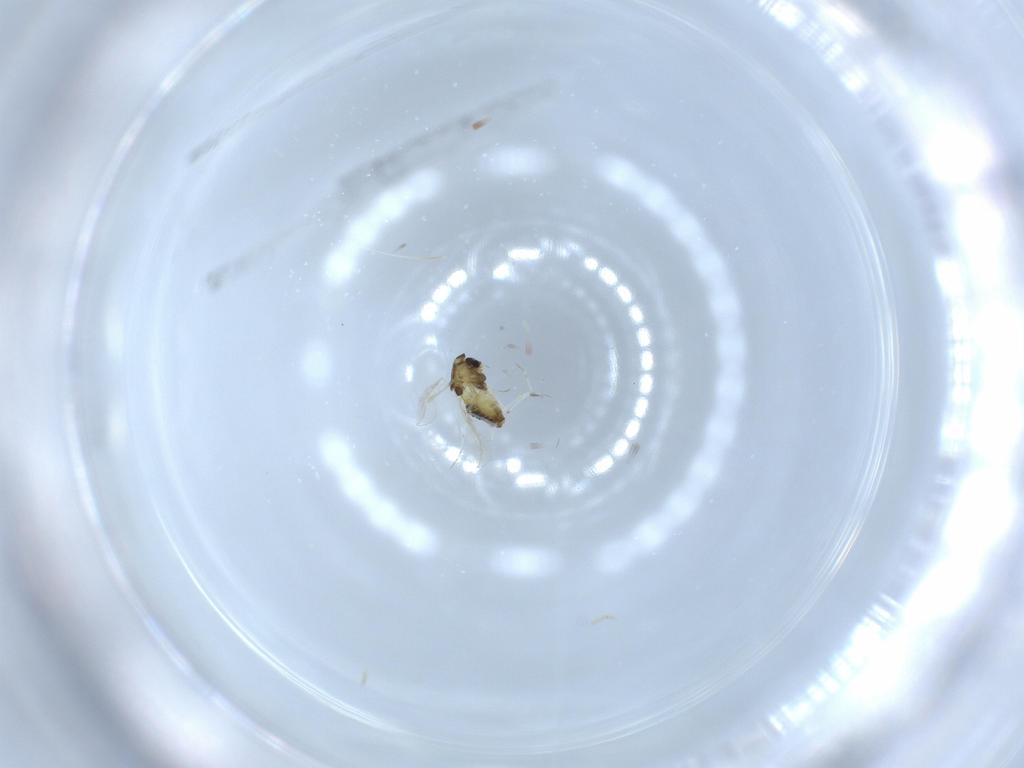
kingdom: Animalia
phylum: Arthropoda
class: Insecta
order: Diptera
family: Chironomidae
